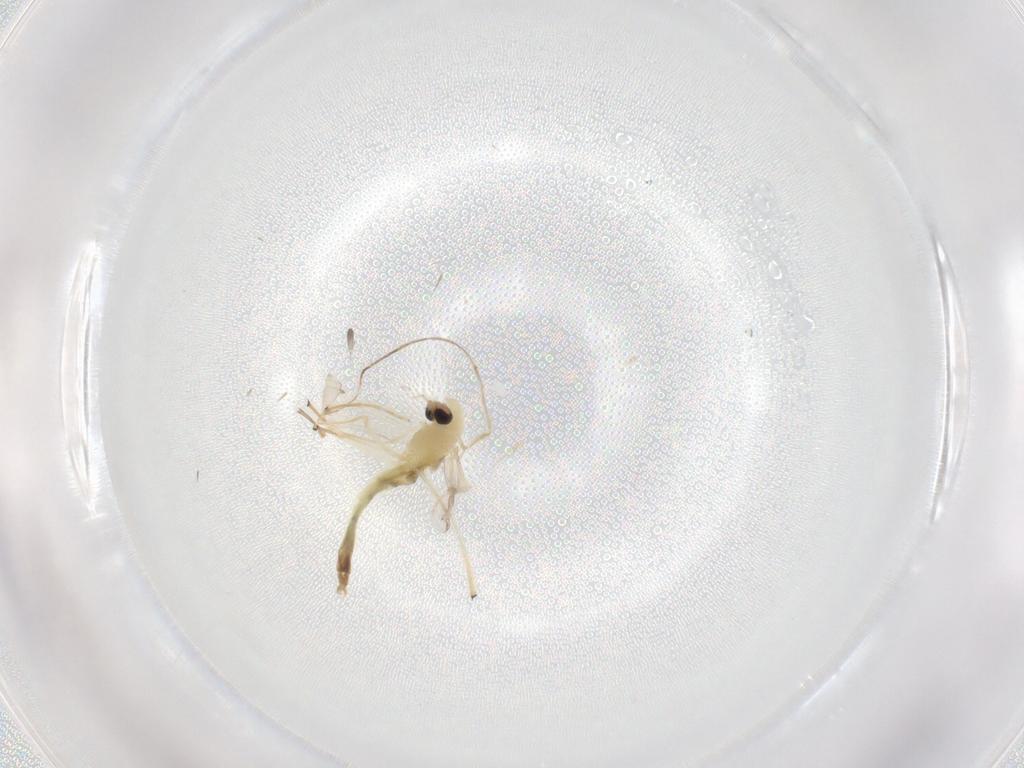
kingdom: Animalia
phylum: Arthropoda
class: Insecta
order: Diptera
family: Chironomidae
